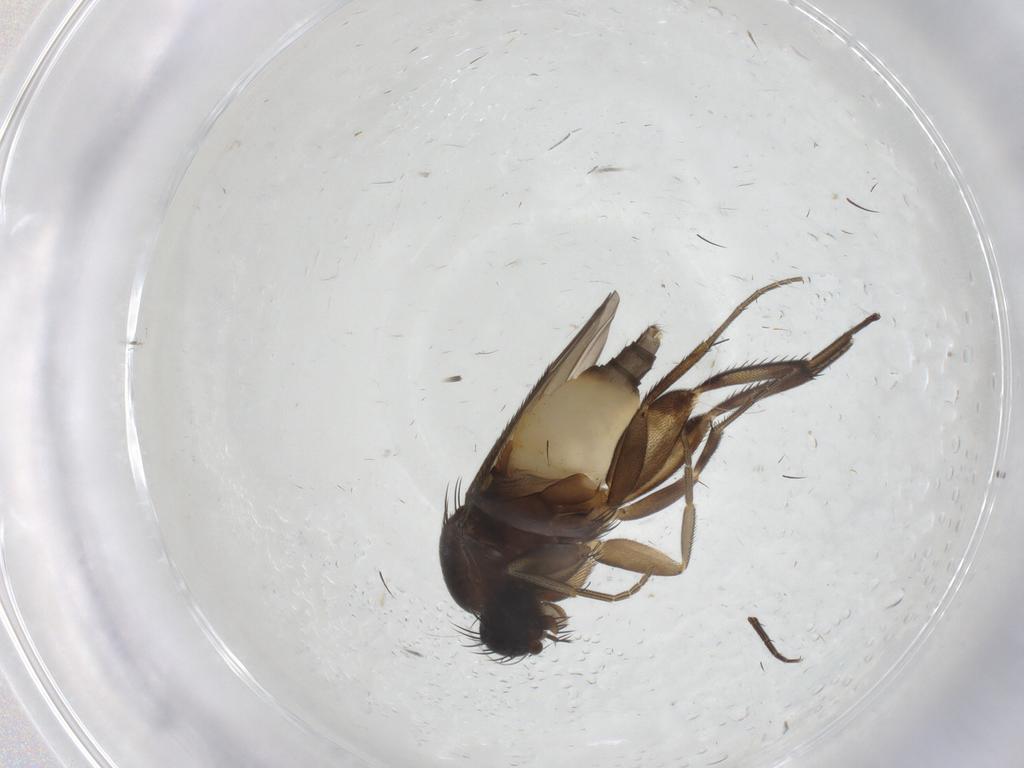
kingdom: Animalia
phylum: Arthropoda
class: Insecta
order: Diptera
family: Phoridae
